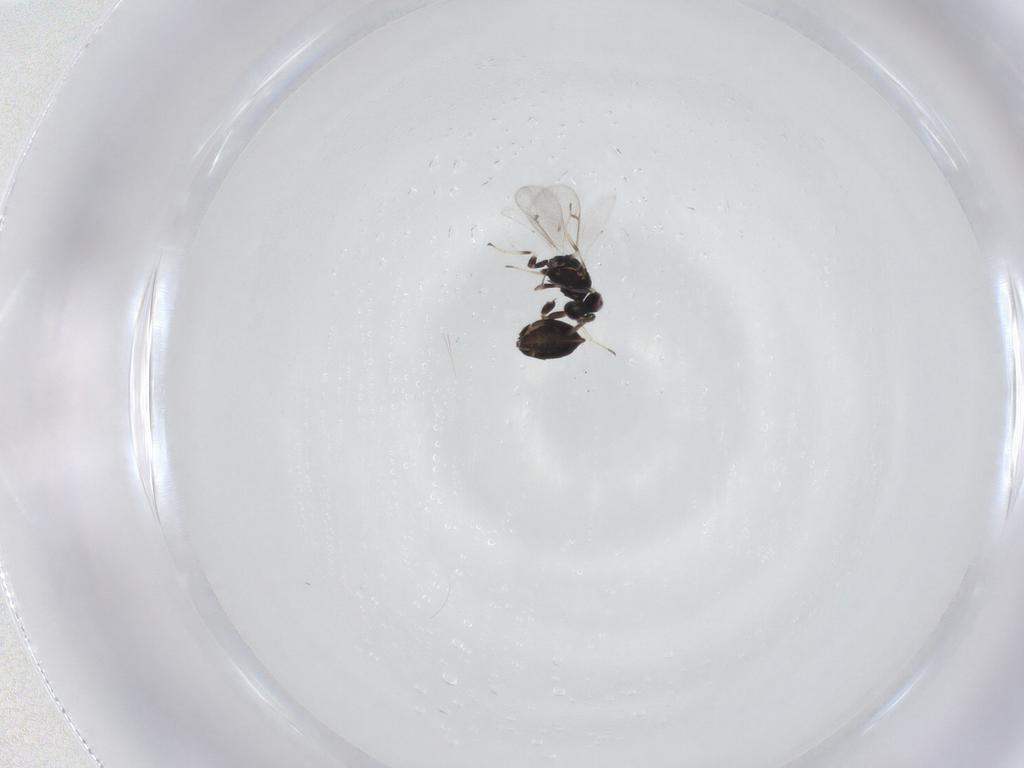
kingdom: Animalia
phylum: Arthropoda
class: Insecta
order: Hymenoptera
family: Eulophidae
